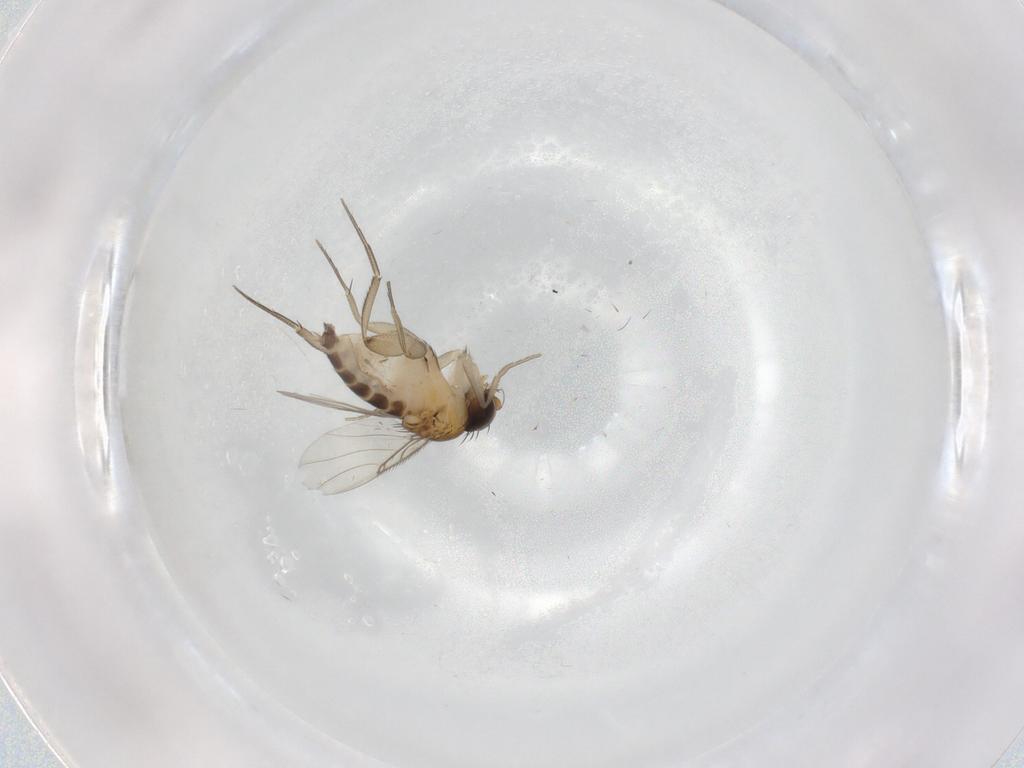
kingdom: Animalia
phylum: Arthropoda
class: Insecta
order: Diptera
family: Phoridae
